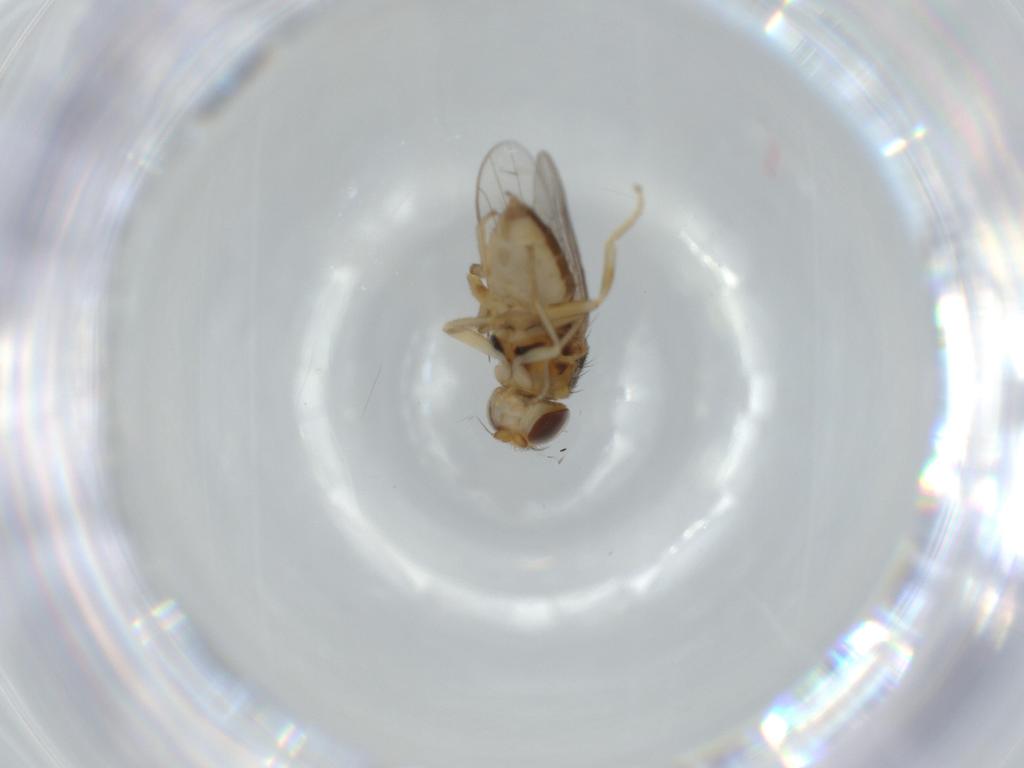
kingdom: Animalia
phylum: Arthropoda
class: Insecta
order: Diptera
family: Chloropidae
